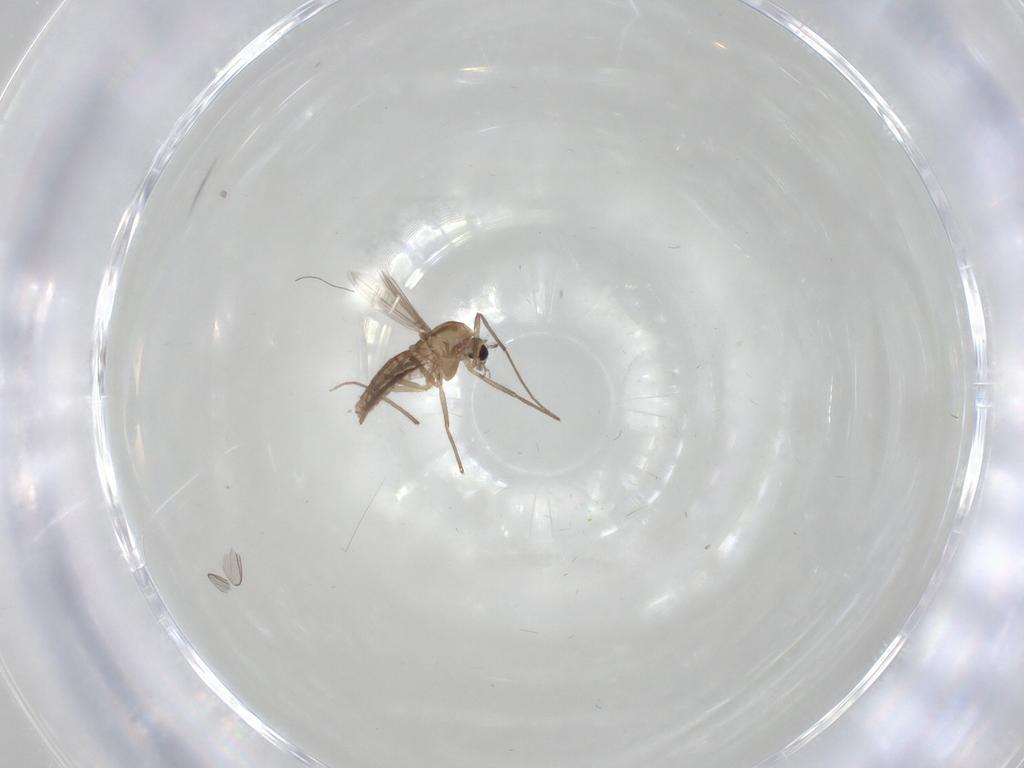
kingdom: Animalia
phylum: Arthropoda
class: Insecta
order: Diptera
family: Chironomidae
